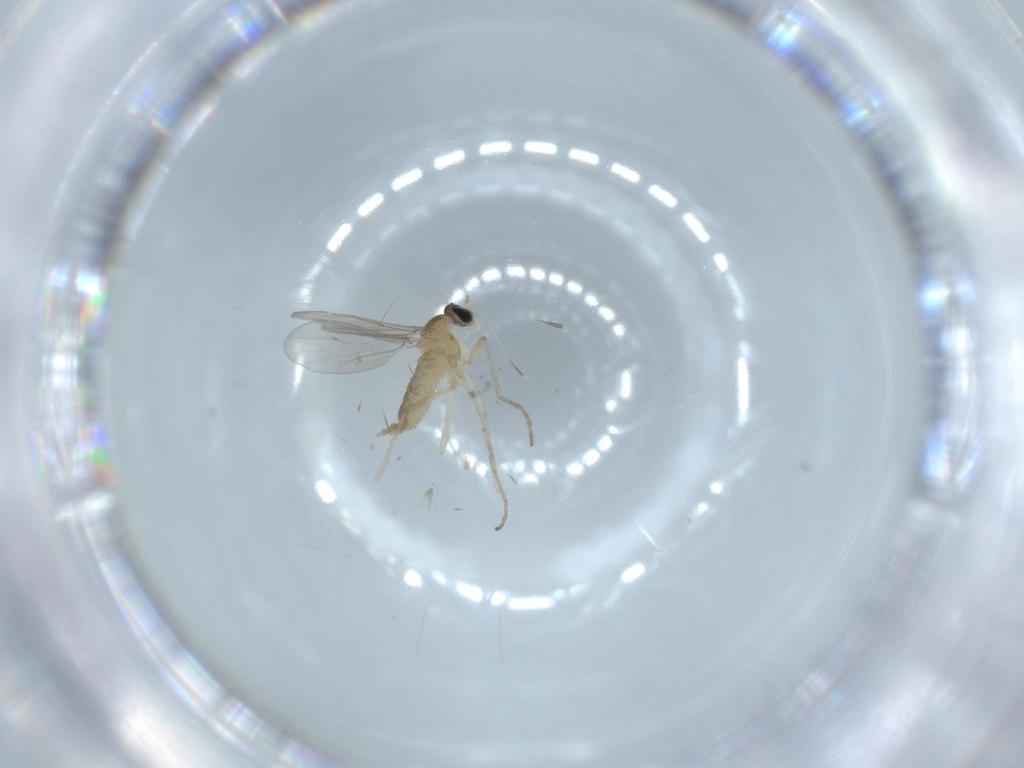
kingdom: Animalia
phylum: Arthropoda
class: Insecta
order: Diptera
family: Cecidomyiidae
